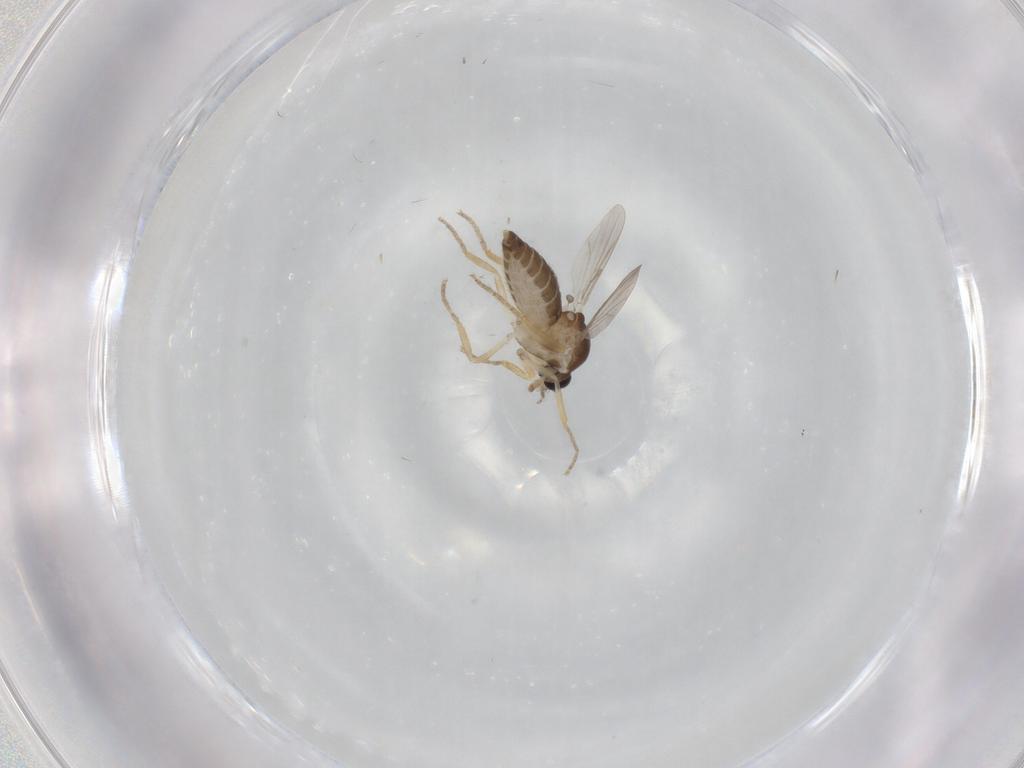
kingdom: Animalia
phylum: Arthropoda
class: Insecta
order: Diptera
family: Ceratopogonidae
